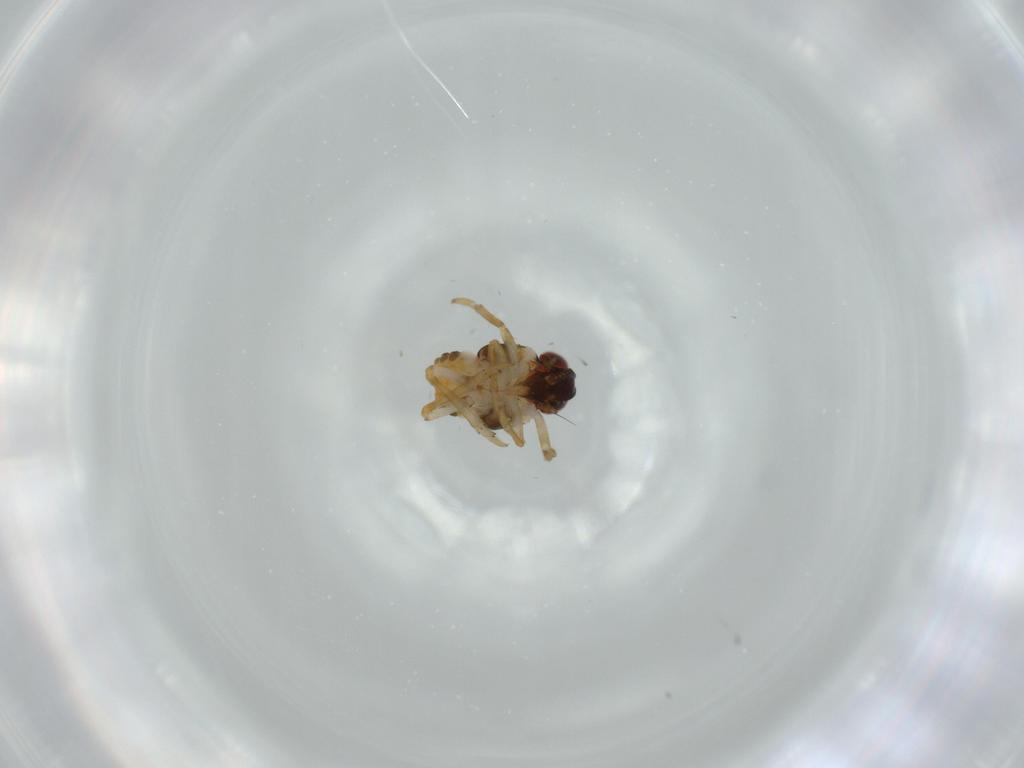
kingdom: Animalia
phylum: Arthropoda
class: Insecta
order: Hemiptera
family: Issidae
